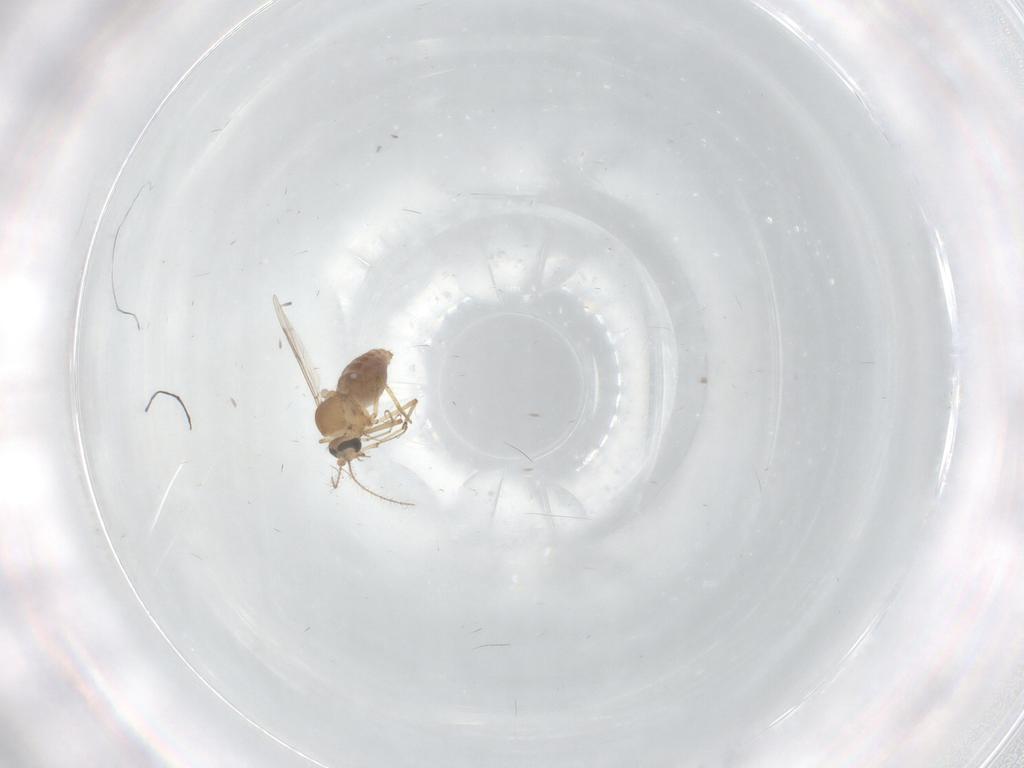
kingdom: Animalia
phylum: Arthropoda
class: Insecta
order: Diptera
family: Ceratopogonidae
